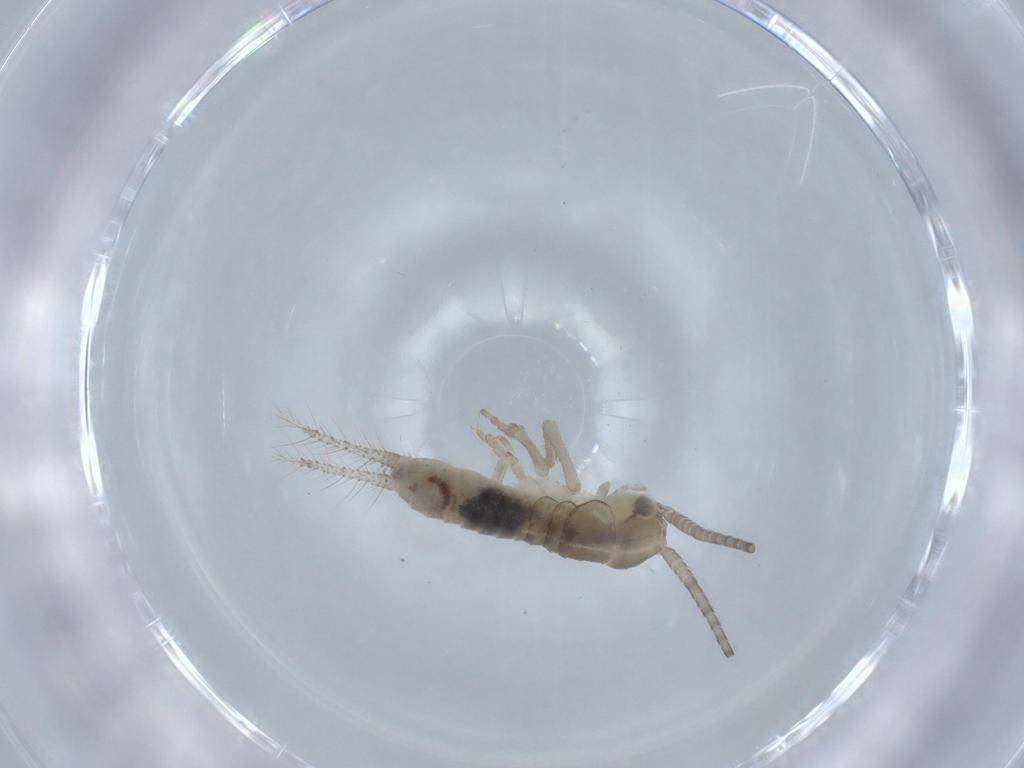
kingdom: Animalia
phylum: Arthropoda
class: Insecta
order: Orthoptera
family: Gryllidae
